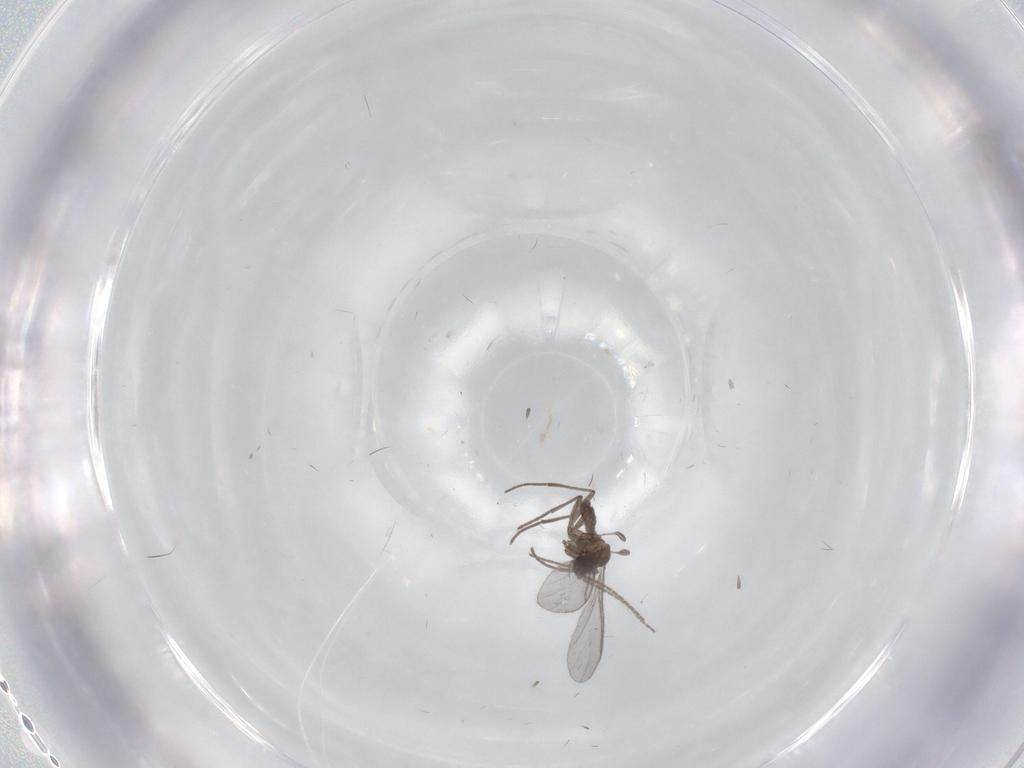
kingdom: Animalia
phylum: Arthropoda
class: Insecta
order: Diptera
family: Sciaridae
